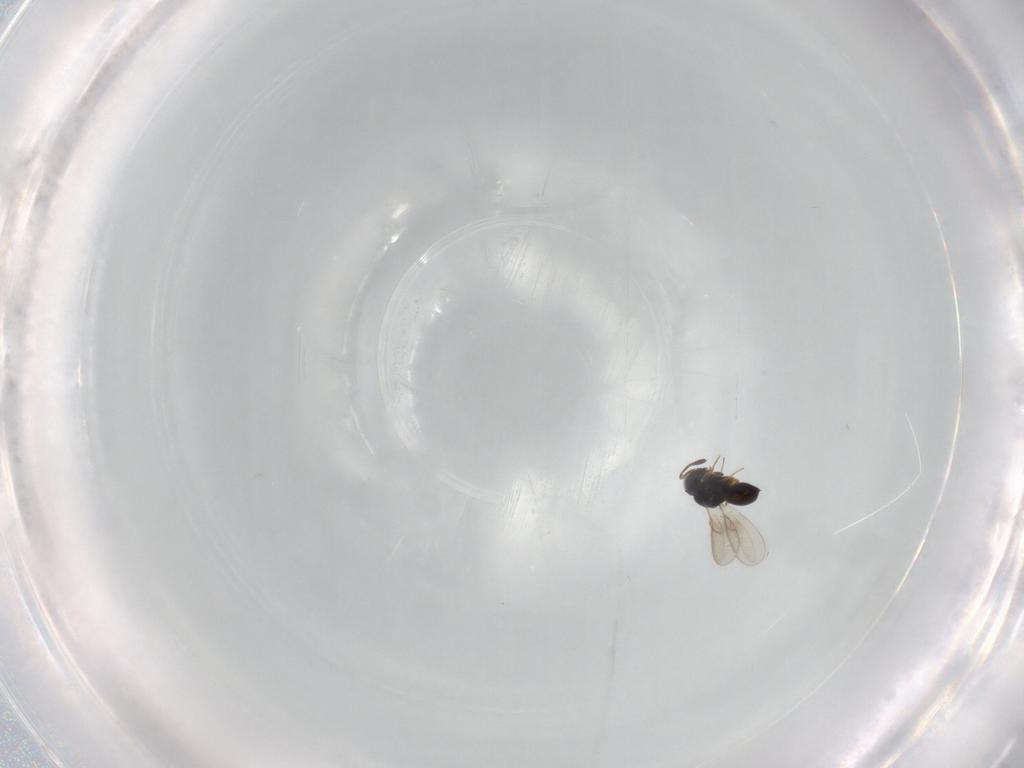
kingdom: Animalia
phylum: Arthropoda
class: Insecta
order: Hymenoptera
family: Scelionidae
